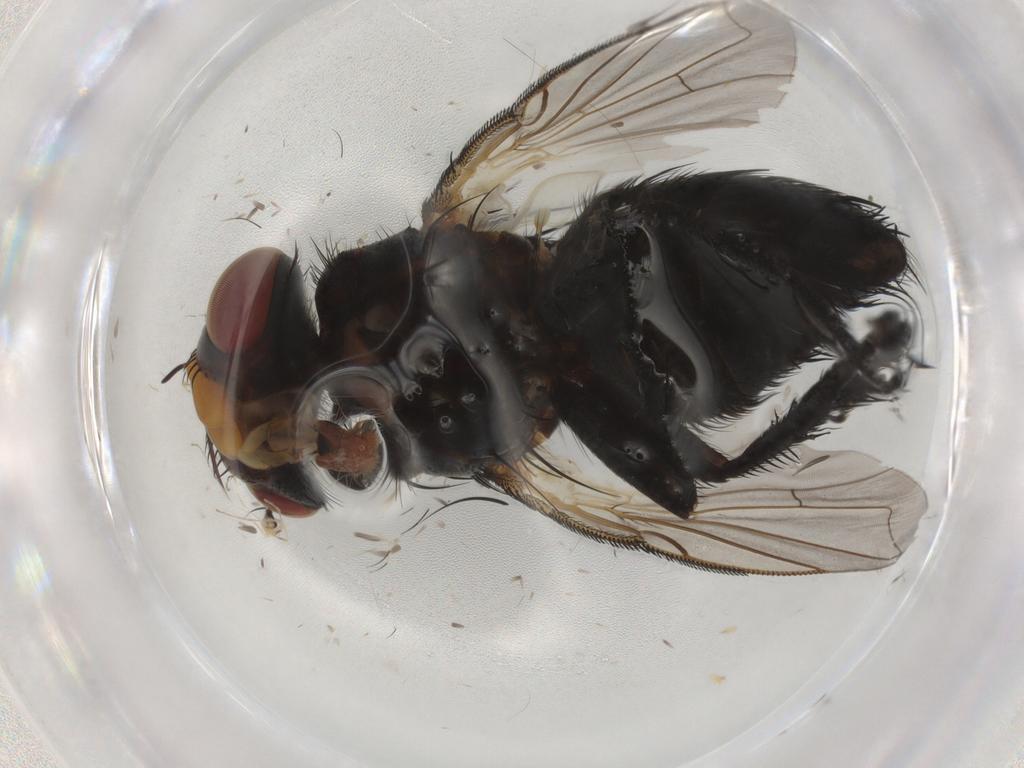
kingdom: Animalia
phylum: Arthropoda
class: Insecta
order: Diptera
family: Tachinidae
